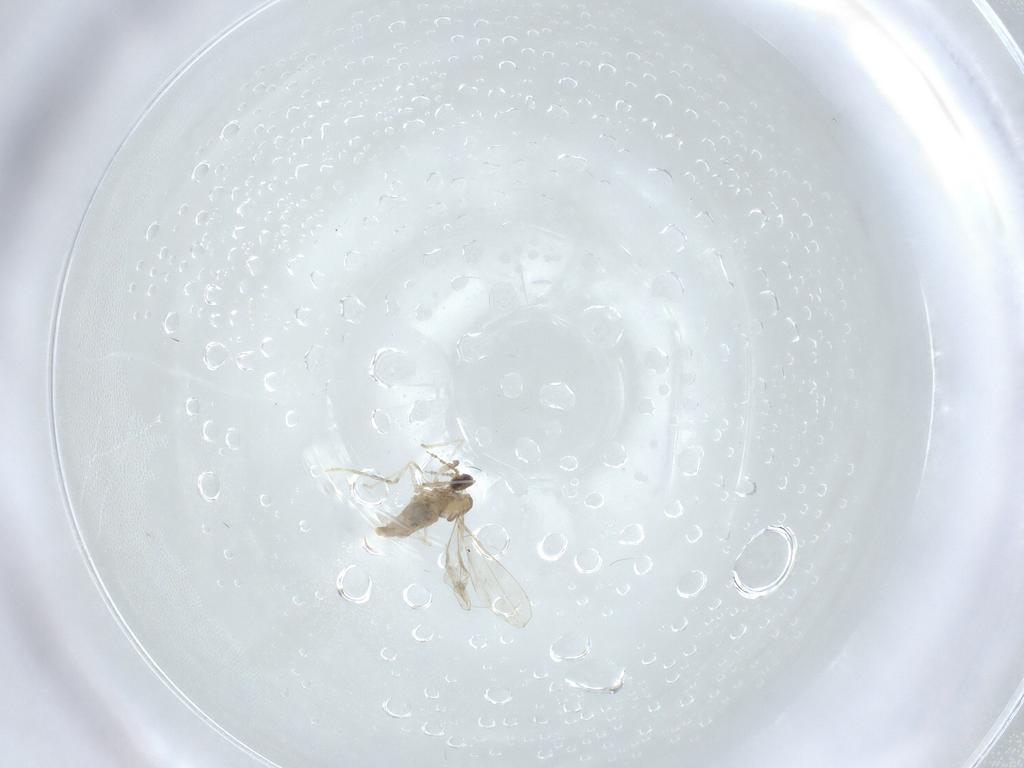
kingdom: Animalia
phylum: Arthropoda
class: Insecta
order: Diptera
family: Cecidomyiidae
